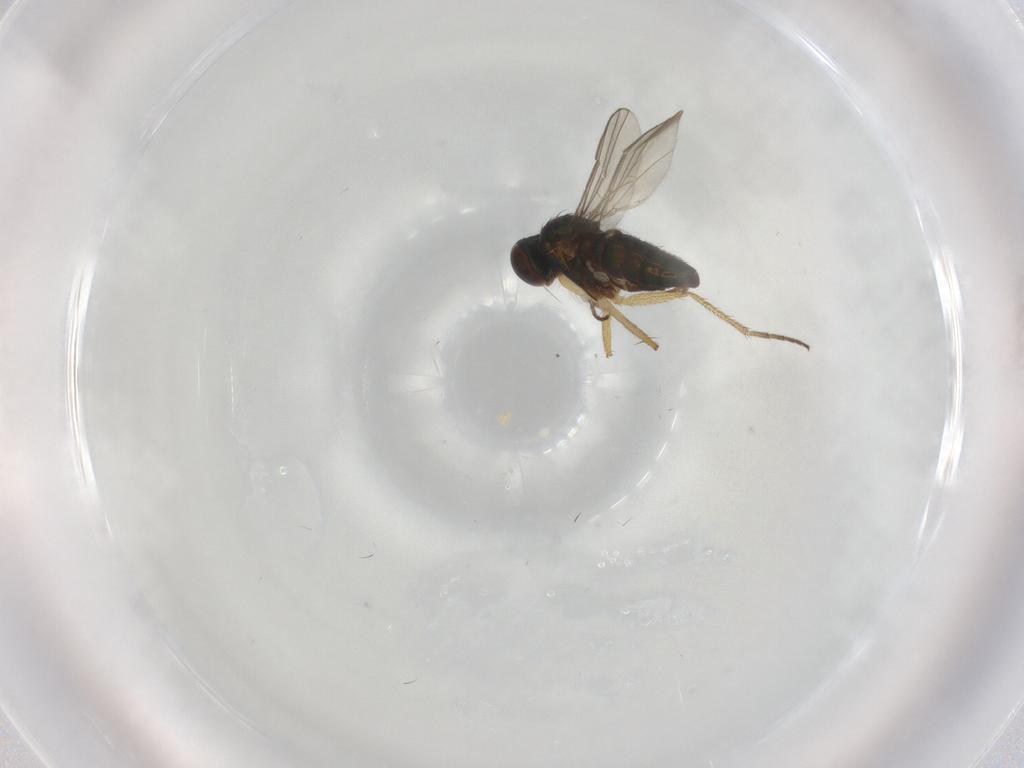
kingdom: Animalia
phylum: Arthropoda
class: Insecta
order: Diptera
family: Dolichopodidae
